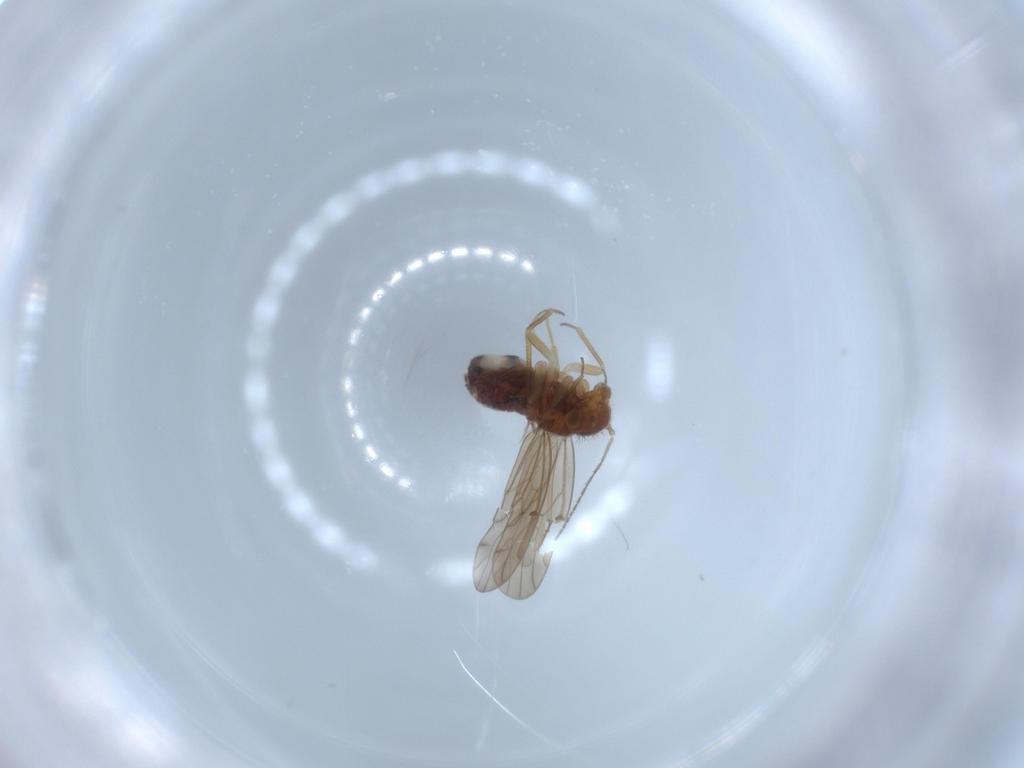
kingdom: Animalia
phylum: Arthropoda
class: Insecta
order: Psocodea
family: Ectopsocidae
